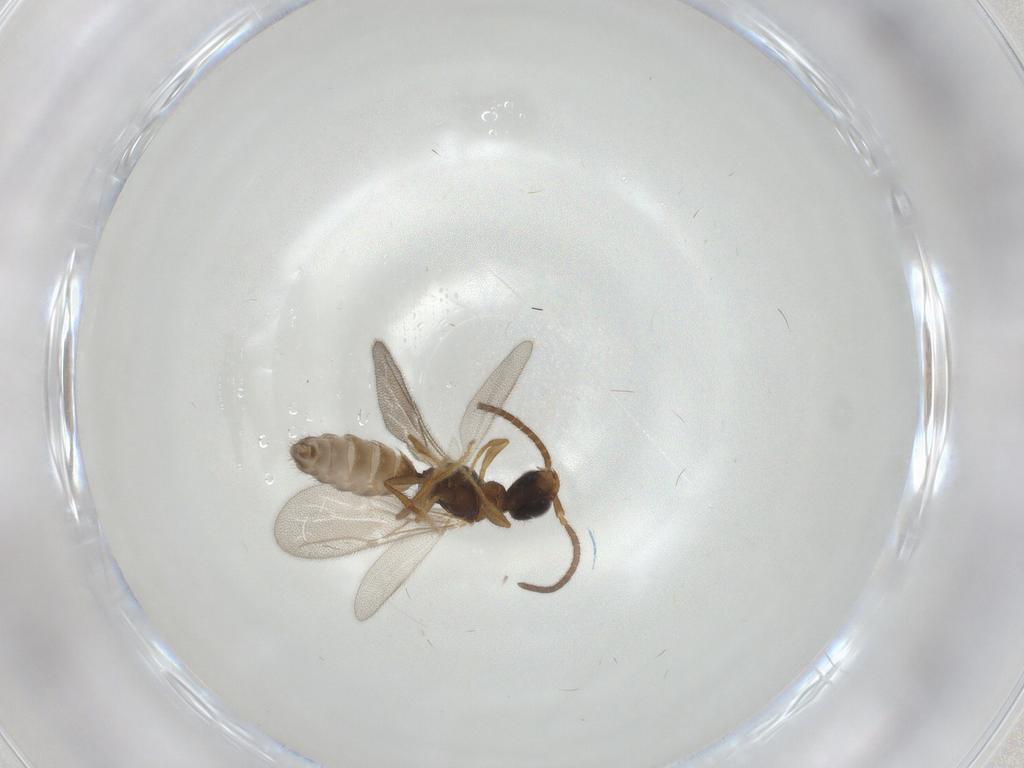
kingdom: Animalia
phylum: Arthropoda
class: Insecta
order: Hymenoptera
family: Bethylidae
